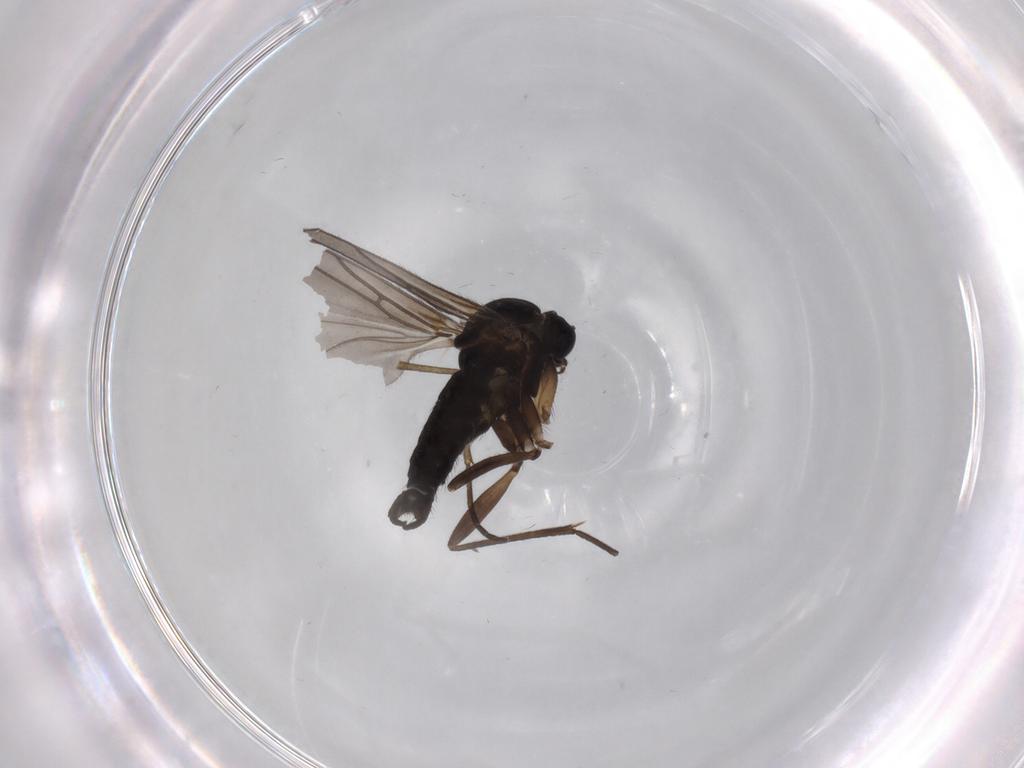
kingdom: Animalia
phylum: Arthropoda
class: Insecta
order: Diptera
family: Sciaridae
